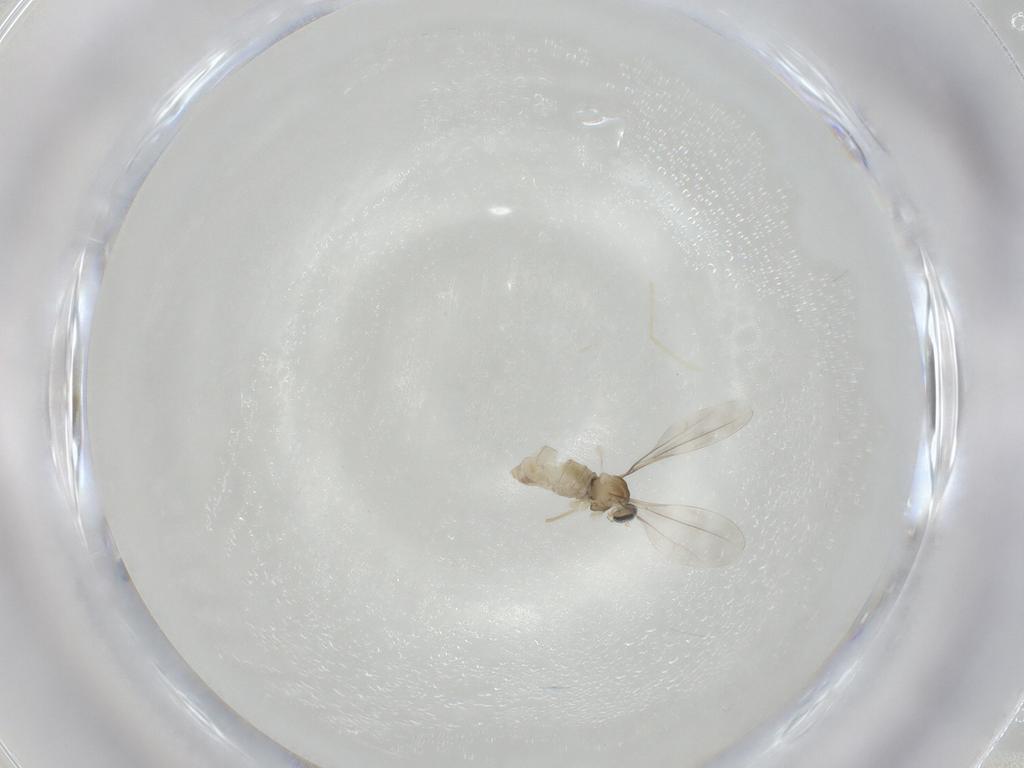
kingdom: Animalia
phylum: Arthropoda
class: Insecta
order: Diptera
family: Cecidomyiidae
